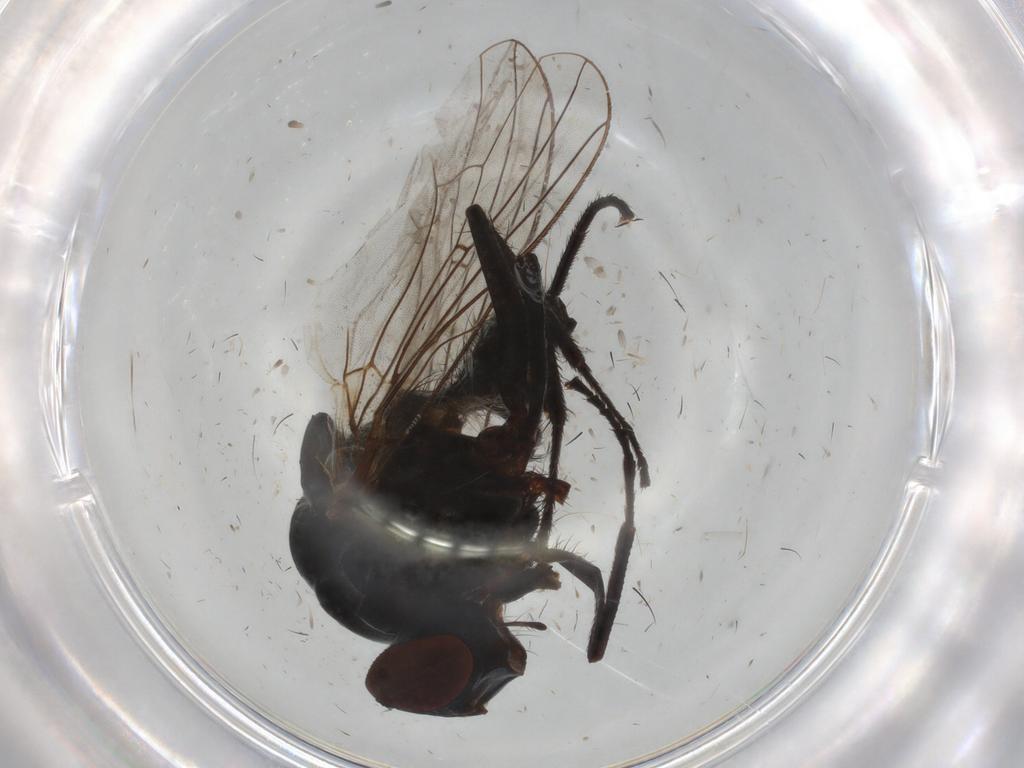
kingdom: Animalia
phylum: Arthropoda
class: Insecta
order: Diptera
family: Anthomyiidae
